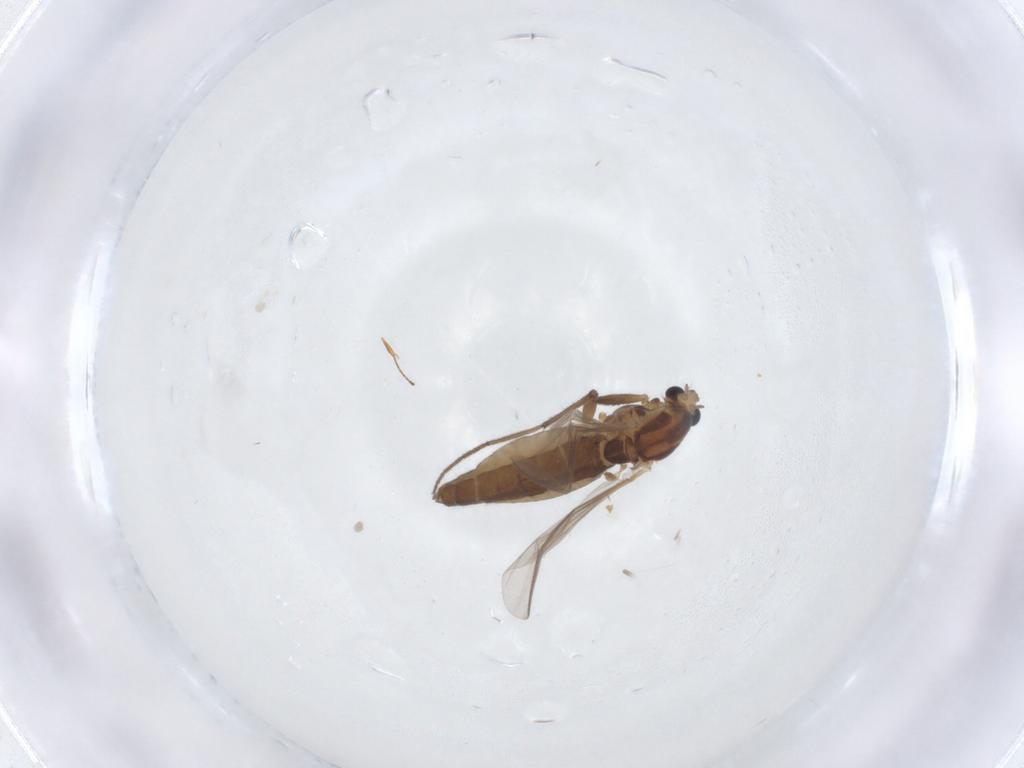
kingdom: Animalia
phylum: Arthropoda
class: Insecta
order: Diptera
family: Chironomidae
